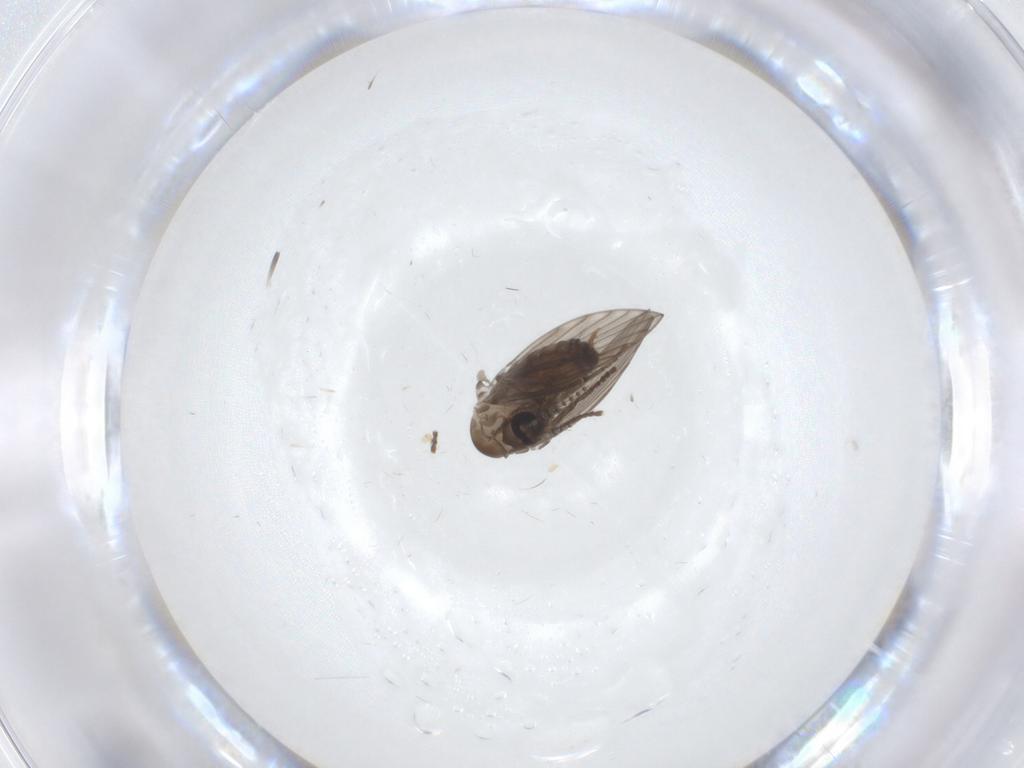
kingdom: Animalia
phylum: Arthropoda
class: Insecta
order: Diptera
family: Psychodidae
